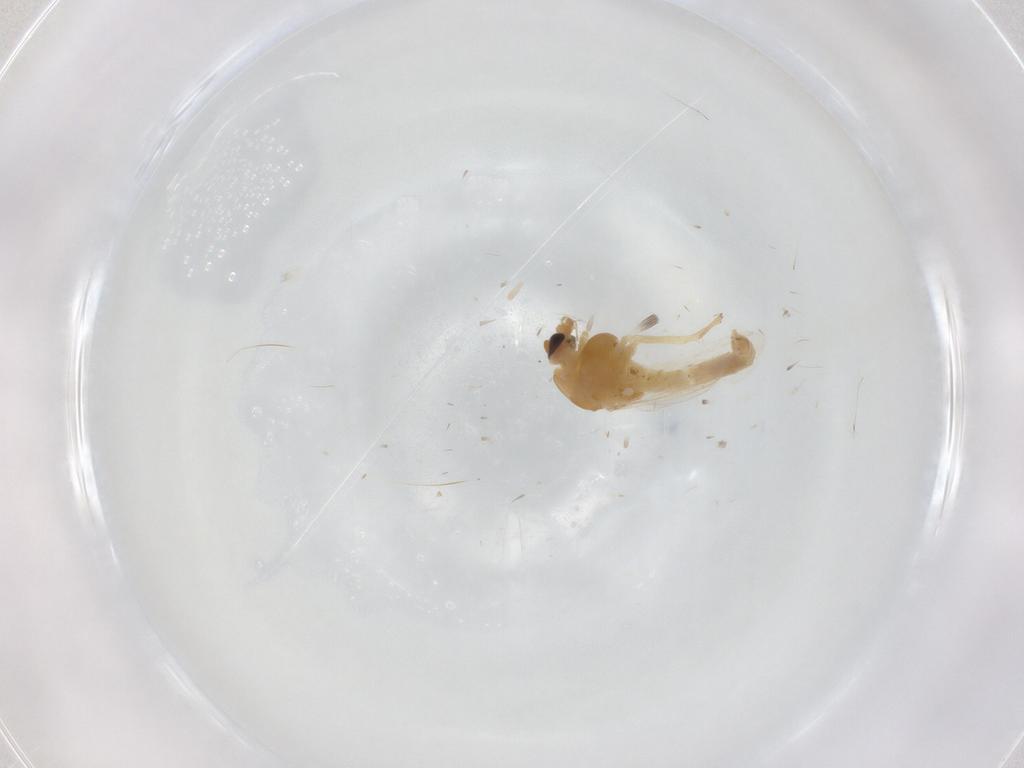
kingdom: Animalia
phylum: Arthropoda
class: Insecta
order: Diptera
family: Chironomidae
